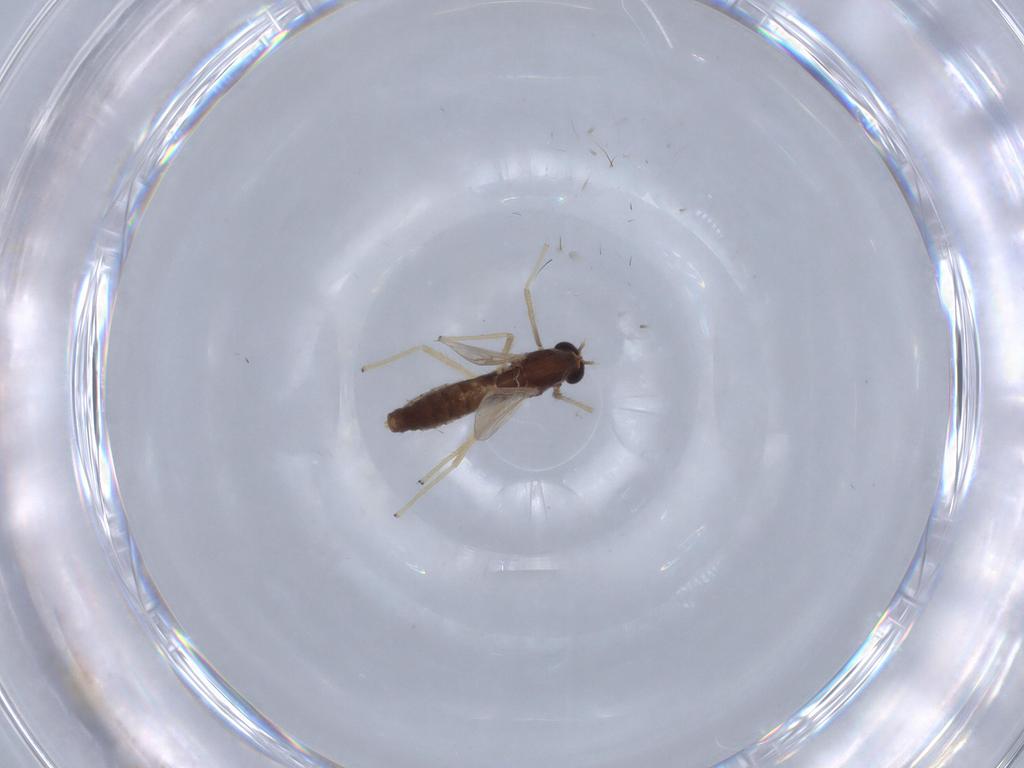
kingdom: Animalia
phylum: Arthropoda
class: Insecta
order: Diptera
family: Chironomidae
